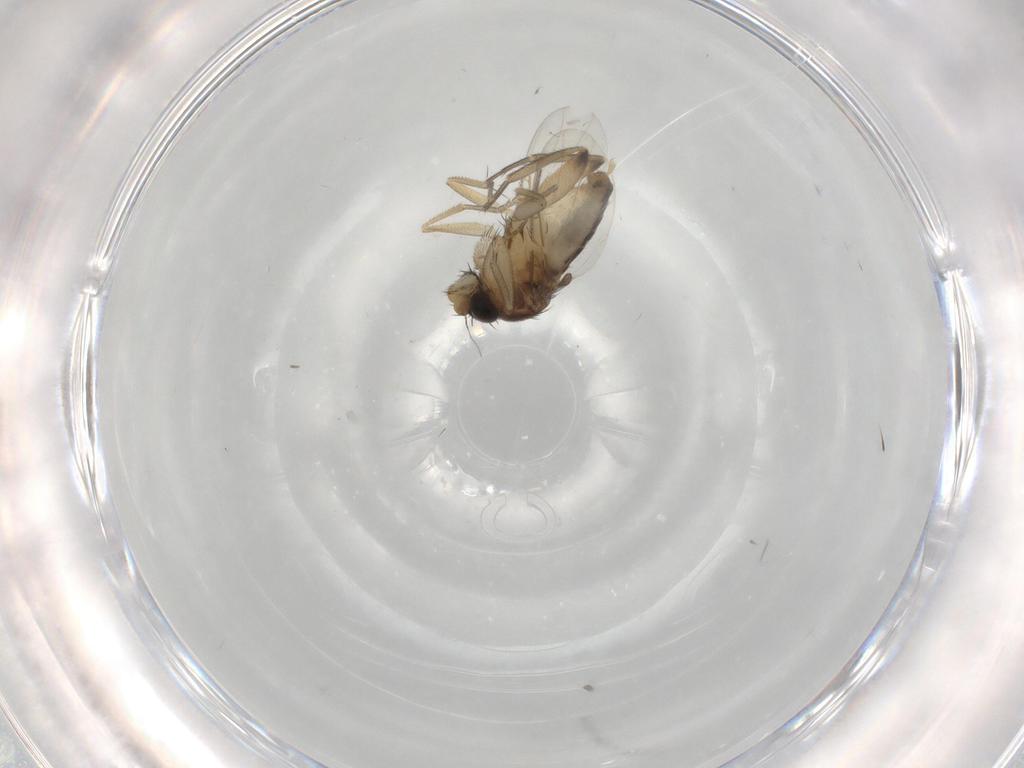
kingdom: Animalia
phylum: Arthropoda
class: Insecta
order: Diptera
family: Phoridae
